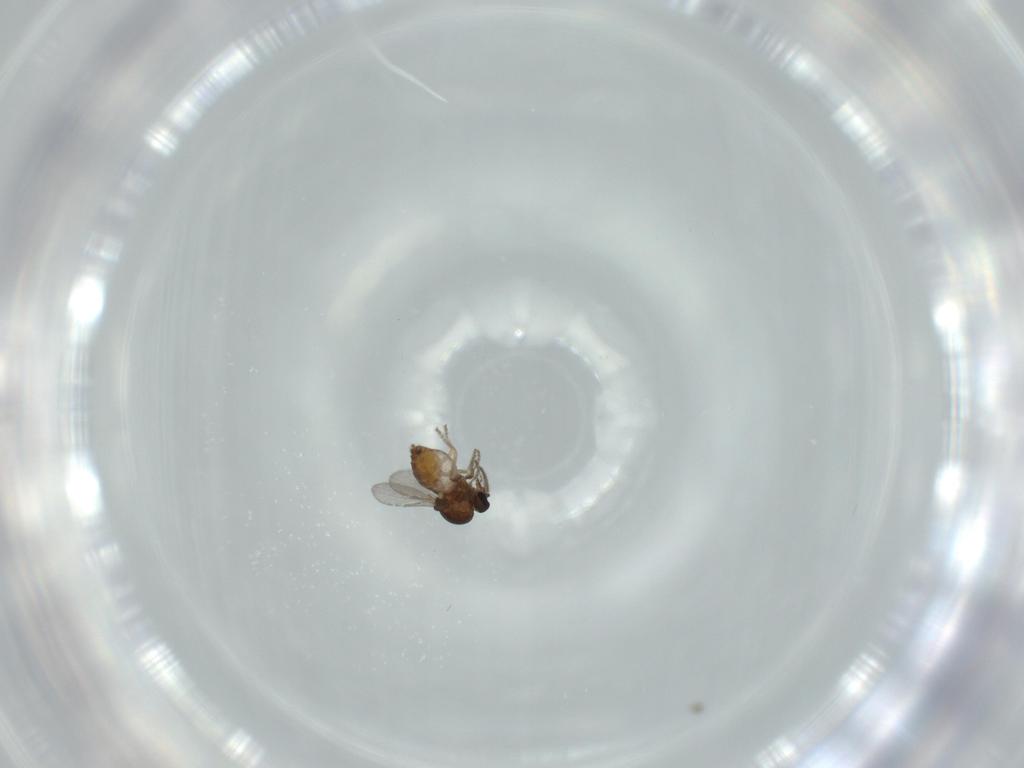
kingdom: Animalia
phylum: Arthropoda
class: Insecta
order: Diptera
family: Ceratopogonidae
